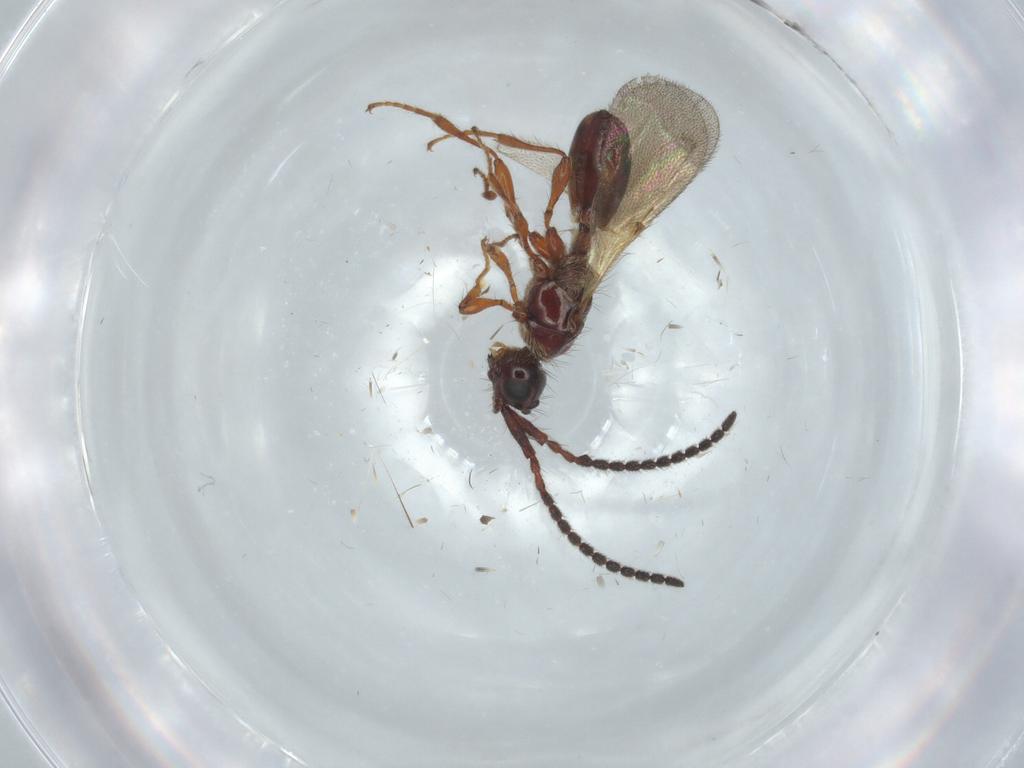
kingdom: Animalia
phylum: Arthropoda
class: Insecta
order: Hymenoptera
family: Diapriidae
